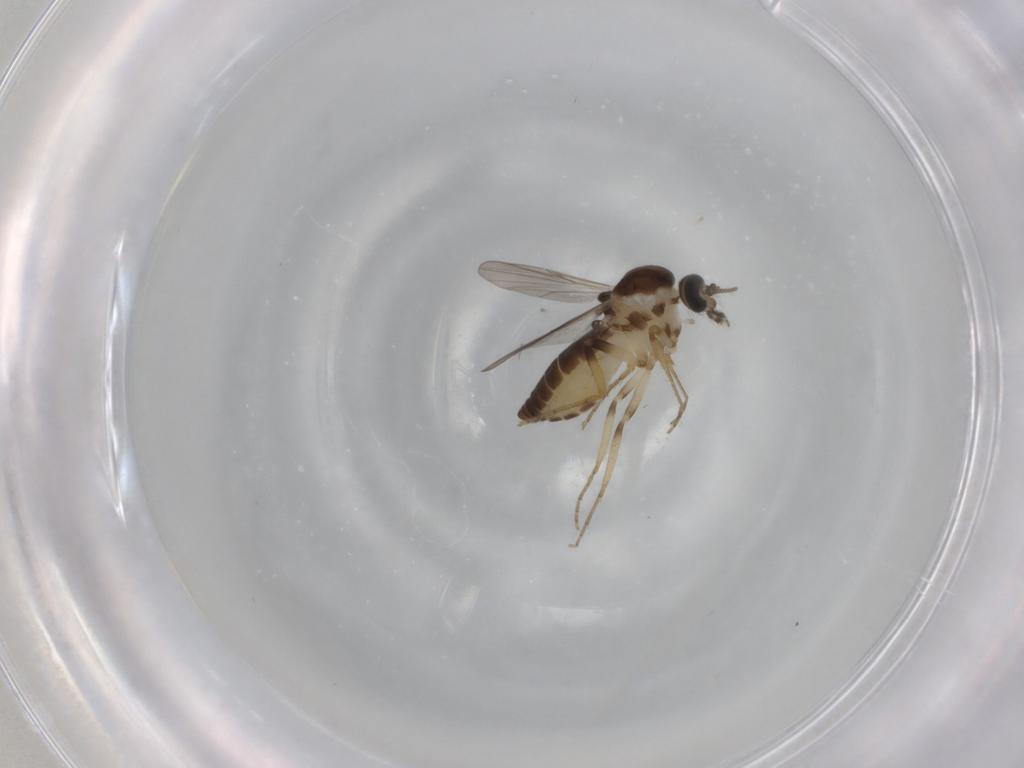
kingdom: Animalia
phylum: Arthropoda
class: Insecta
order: Diptera
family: Ceratopogonidae
